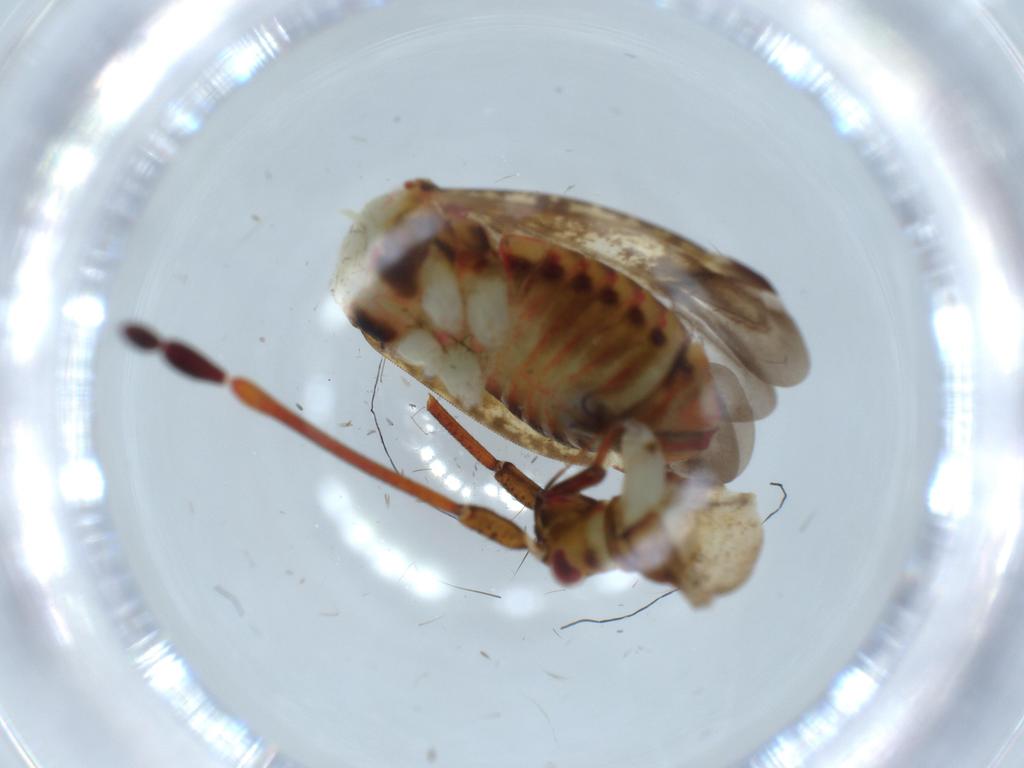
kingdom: Animalia
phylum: Arthropoda
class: Insecta
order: Hemiptera
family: Miridae
